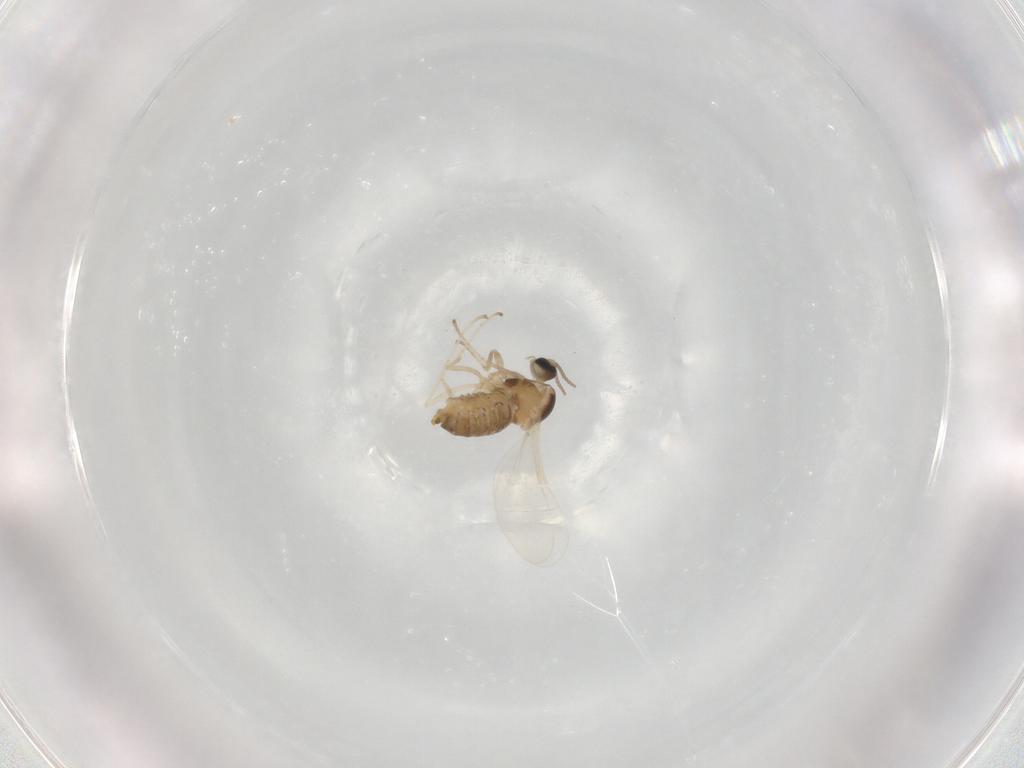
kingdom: Animalia
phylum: Arthropoda
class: Insecta
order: Diptera
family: Cecidomyiidae
